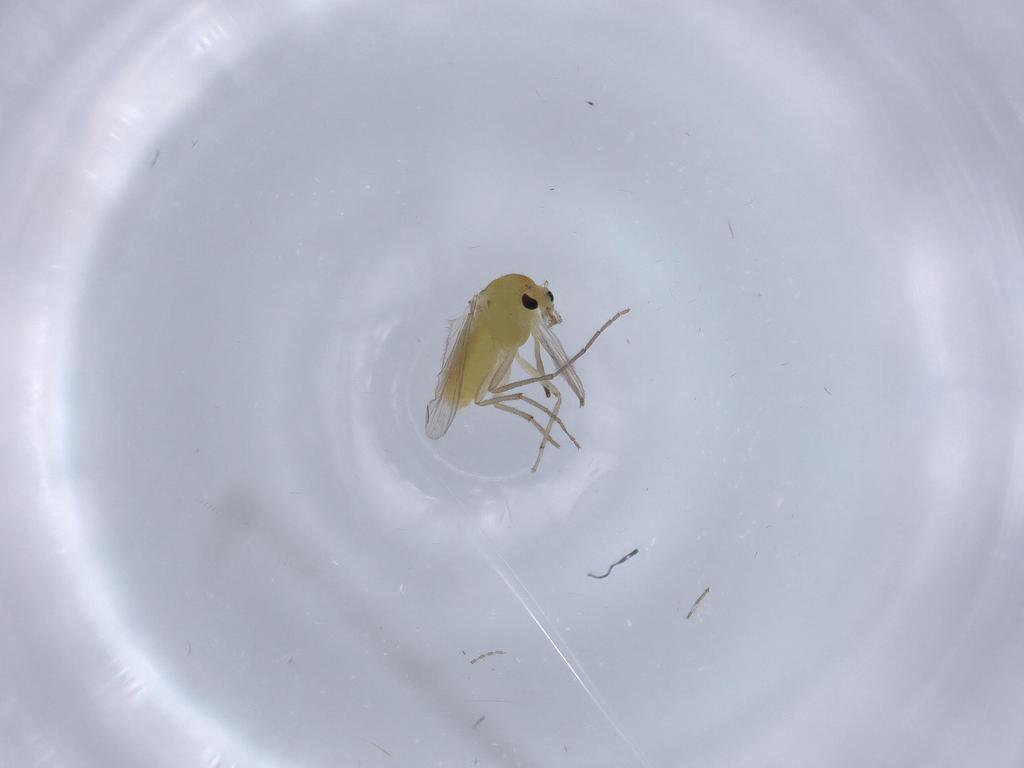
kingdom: Animalia
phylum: Arthropoda
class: Insecta
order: Diptera
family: Chironomidae
